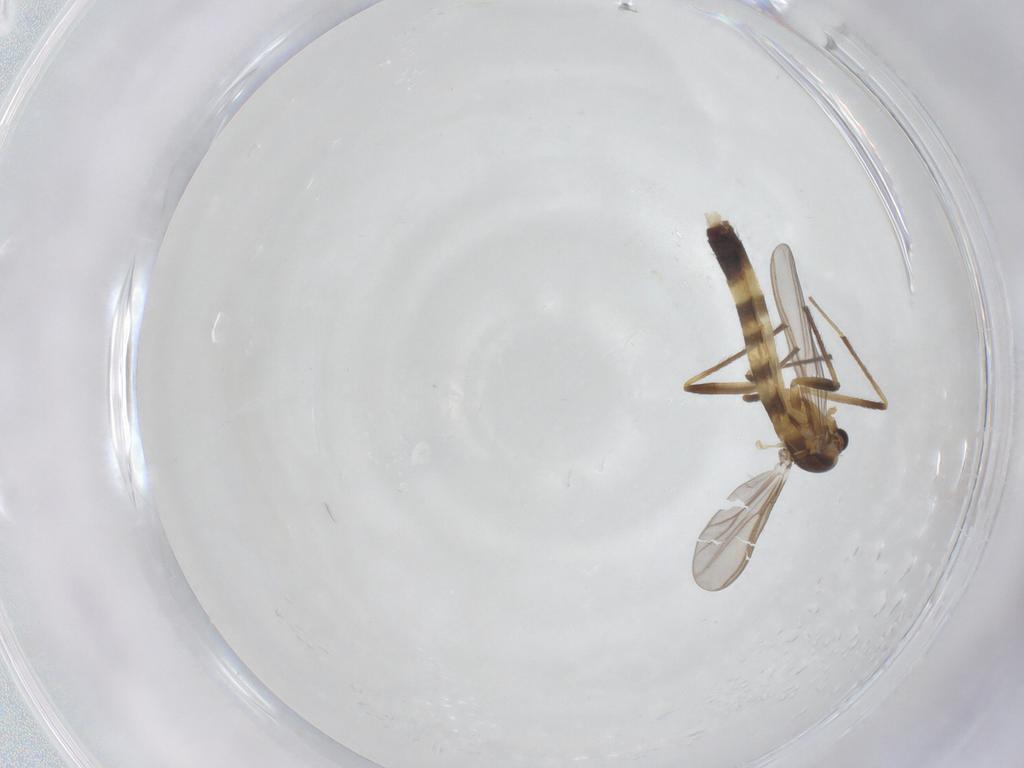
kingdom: Animalia
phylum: Arthropoda
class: Insecta
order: Diptera
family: Chironomidae
